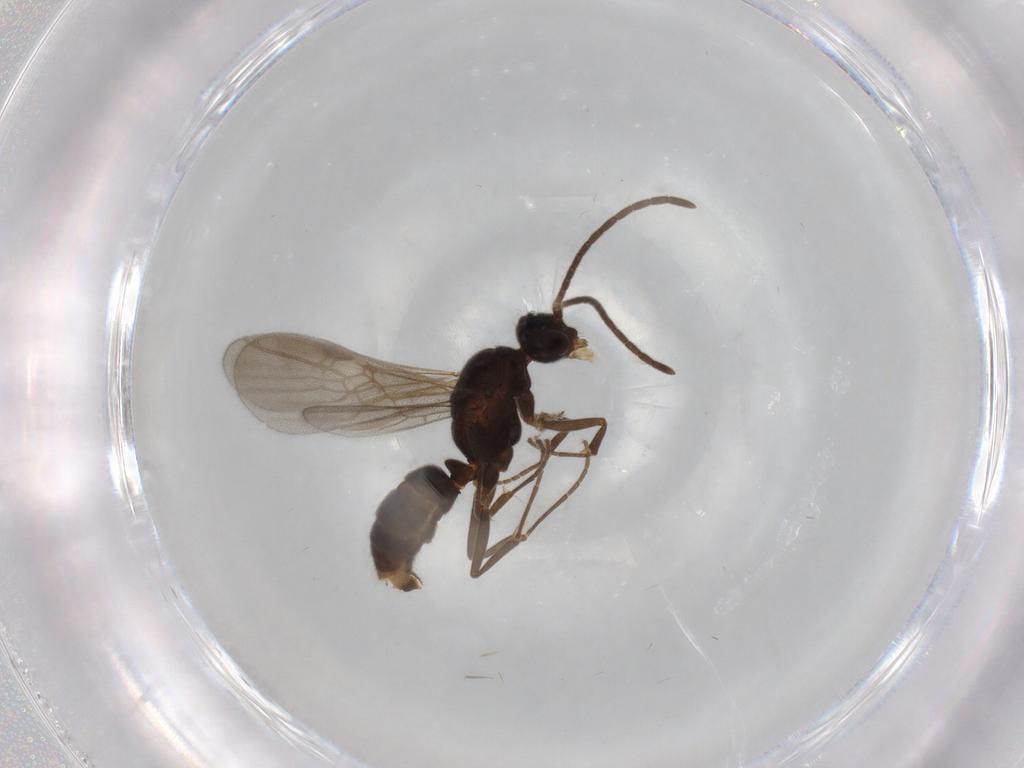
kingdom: Animalia
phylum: Arthropoda
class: Insecta
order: Hymenoptera
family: Formicidae
